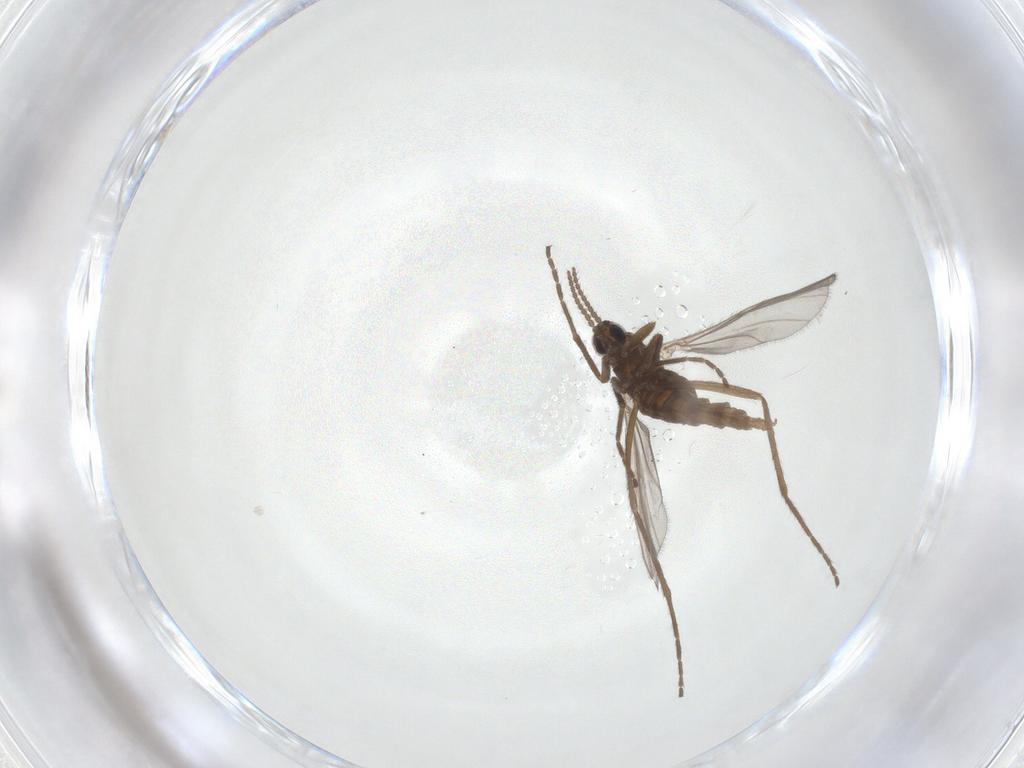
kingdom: Animalia
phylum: Arthropoda
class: Insecta
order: Diptera
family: Cecidomyiidae
